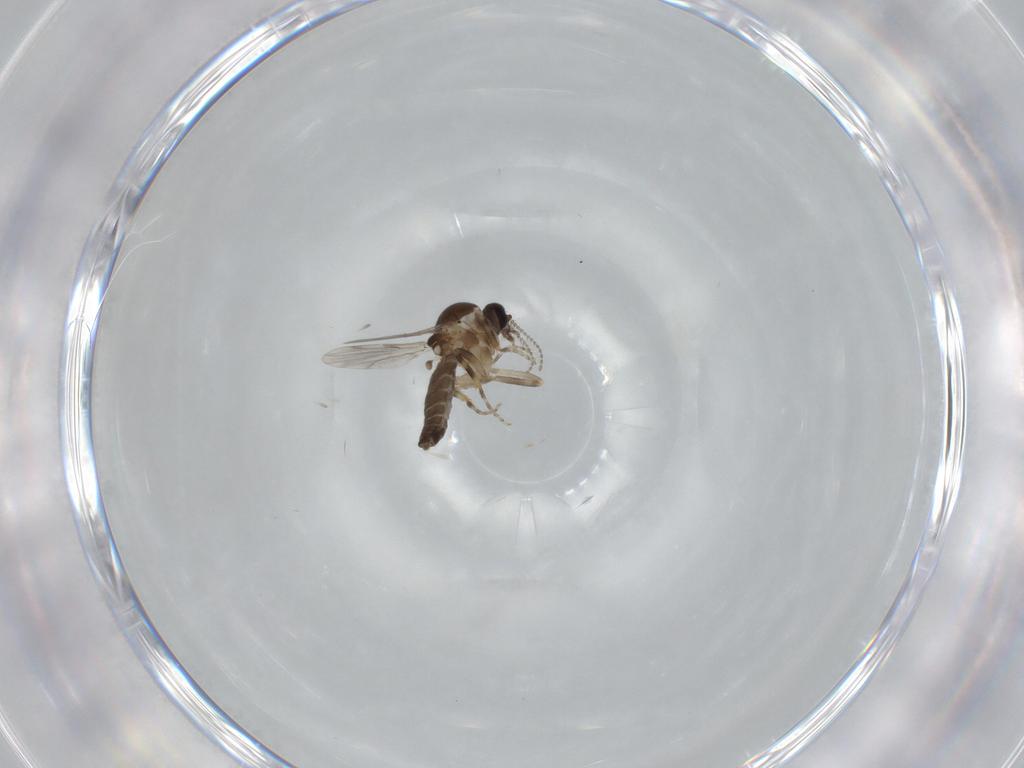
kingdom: Animalia
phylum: Arthropoda
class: Insecta
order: Diptera
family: Ceratopogonidae
